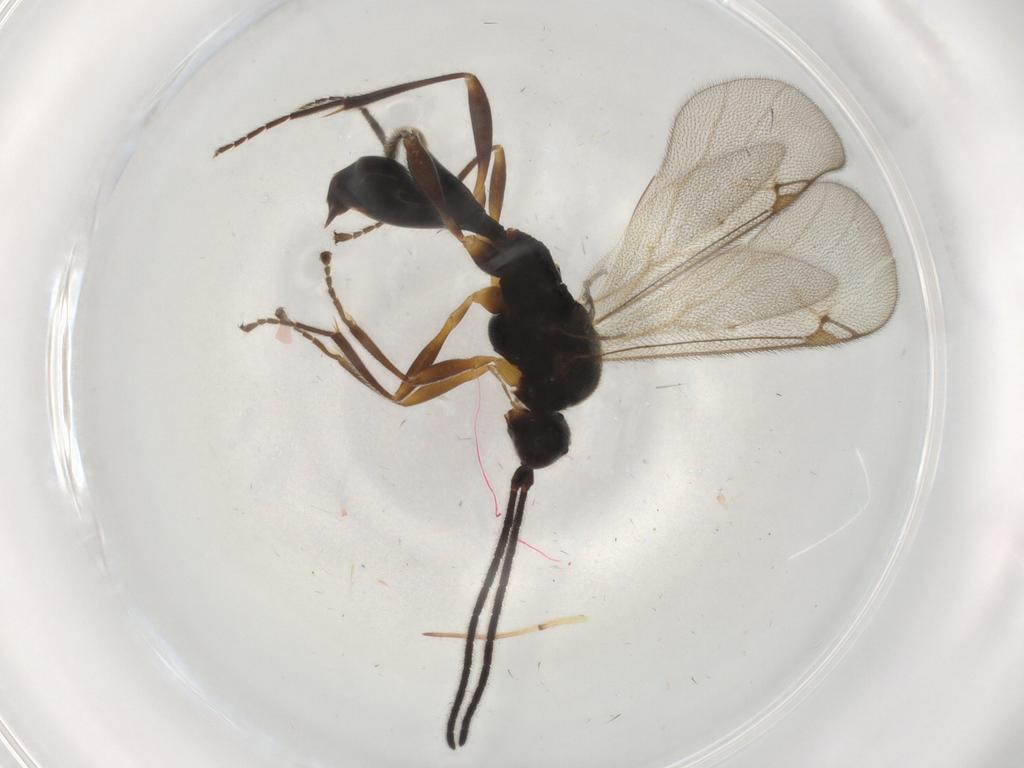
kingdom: Animalia
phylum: Arthropoda
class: Insecta
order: Hymenoptera
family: Proctotrupidae
